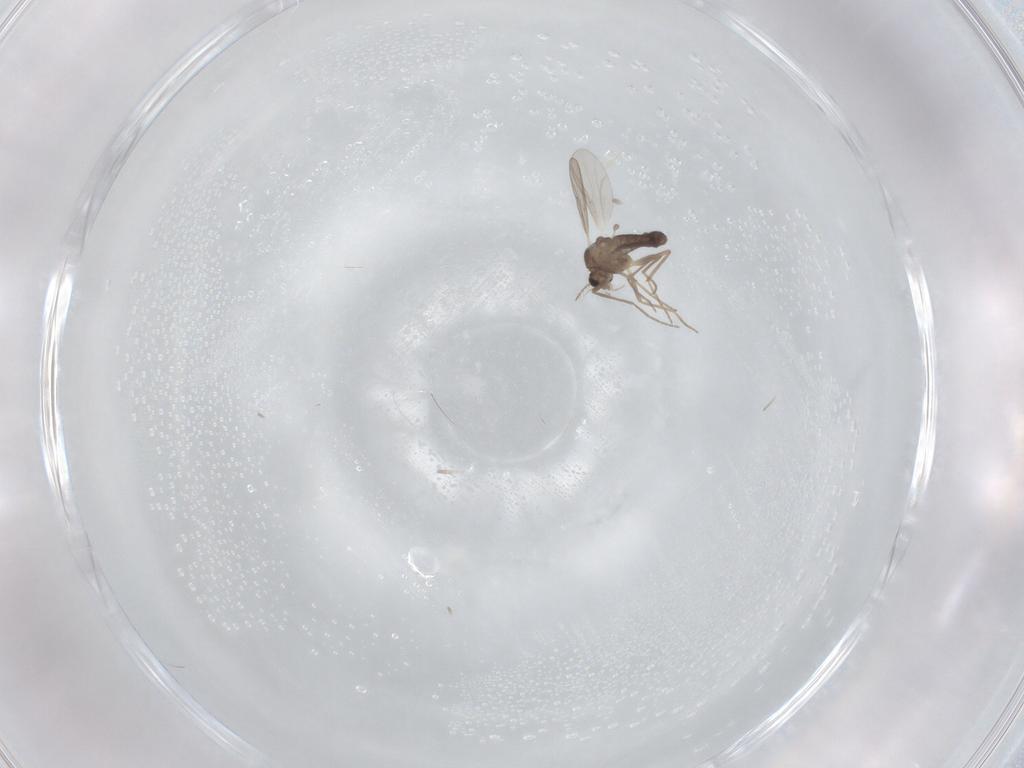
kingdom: Animalia
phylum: Arthropoda
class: Insecta
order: Diptera
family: Chironomidae
